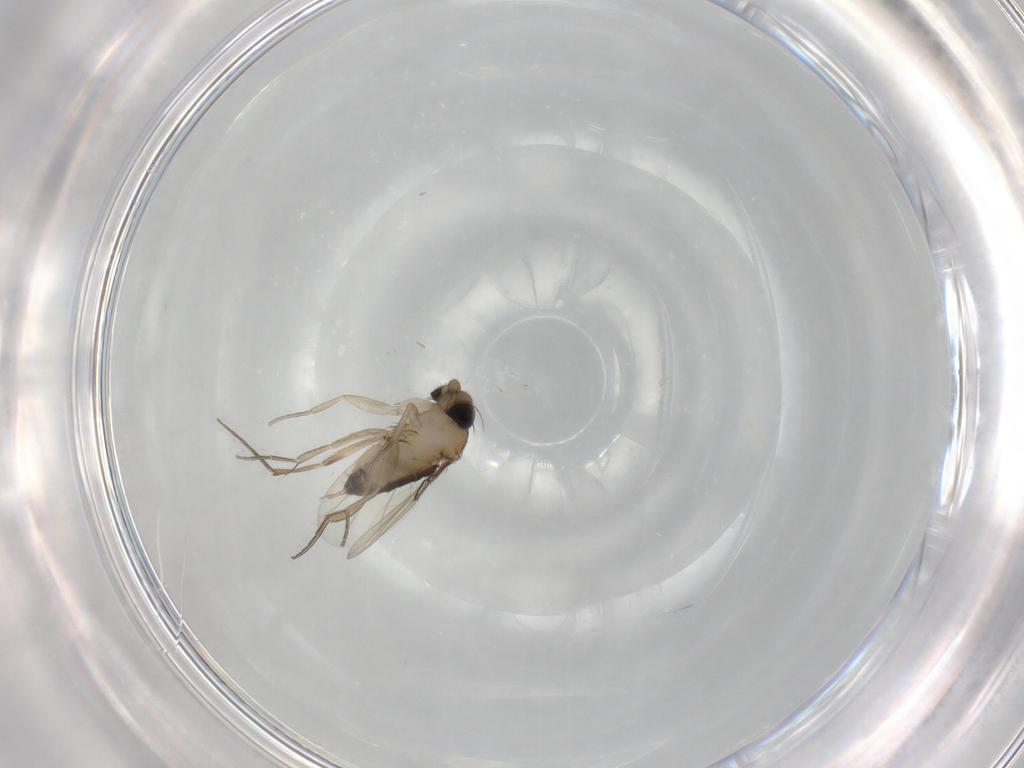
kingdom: Animalia
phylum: Arthropoda
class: Insecta
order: Diptera
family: Phoridae
